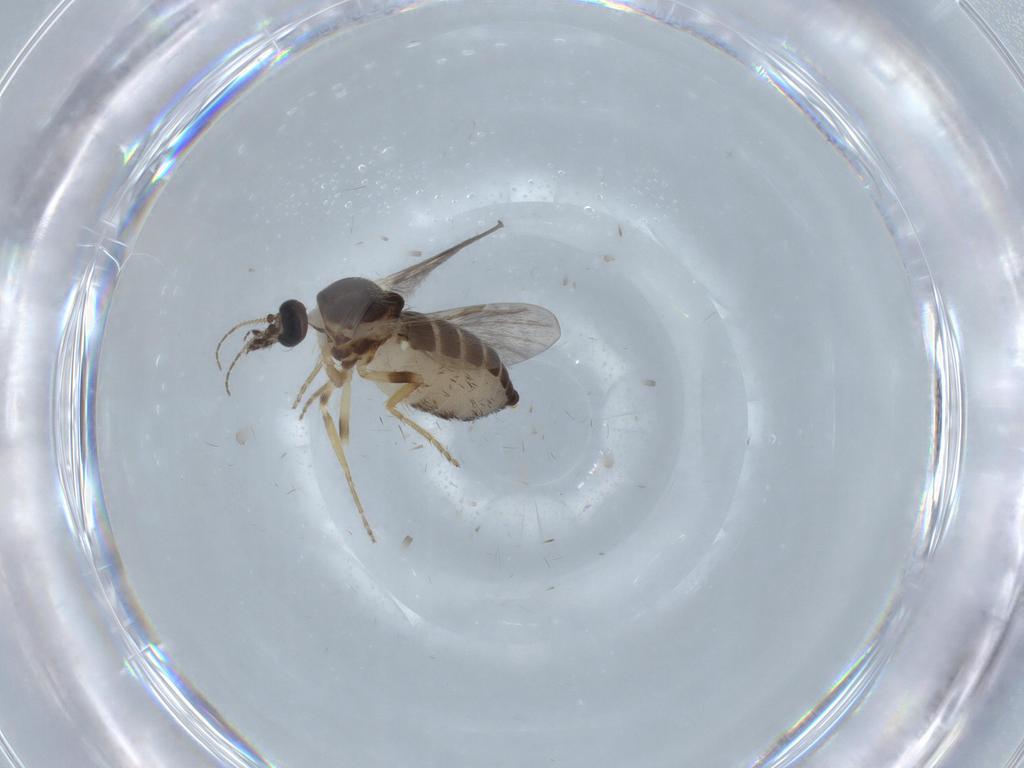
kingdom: Animalia
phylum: Arthropoda
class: Insecta
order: Diptera
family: Ceratopogonidae
